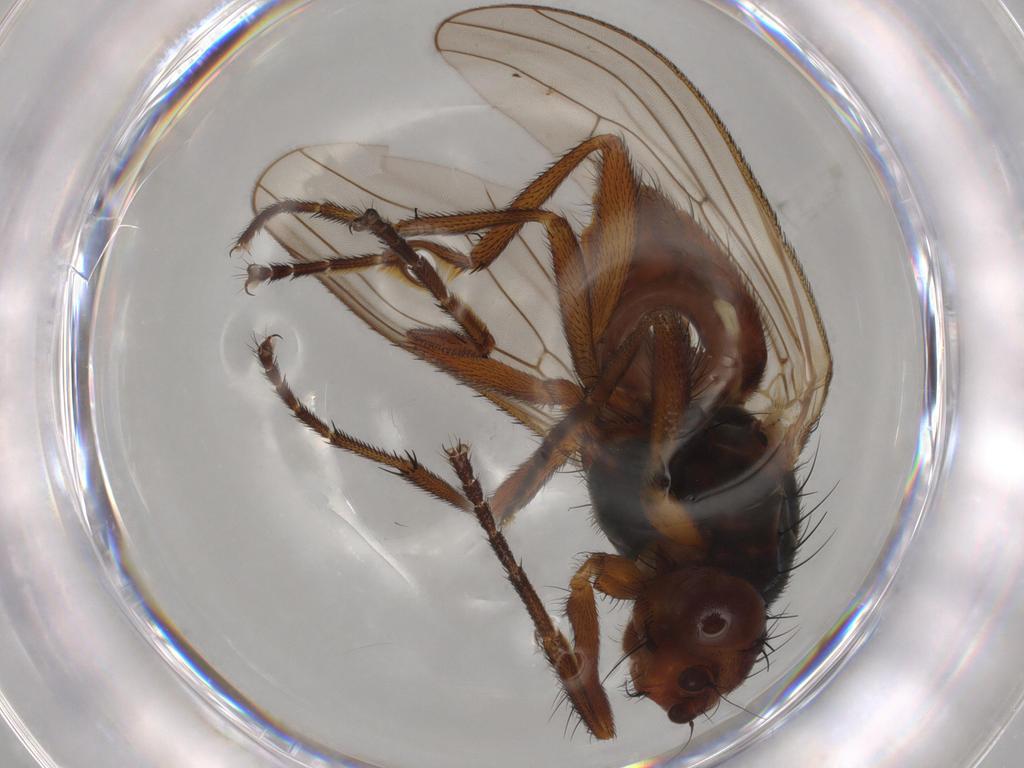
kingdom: Animalia
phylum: Arthropoda
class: Insecta
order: Diptera
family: Heleomyzidae
